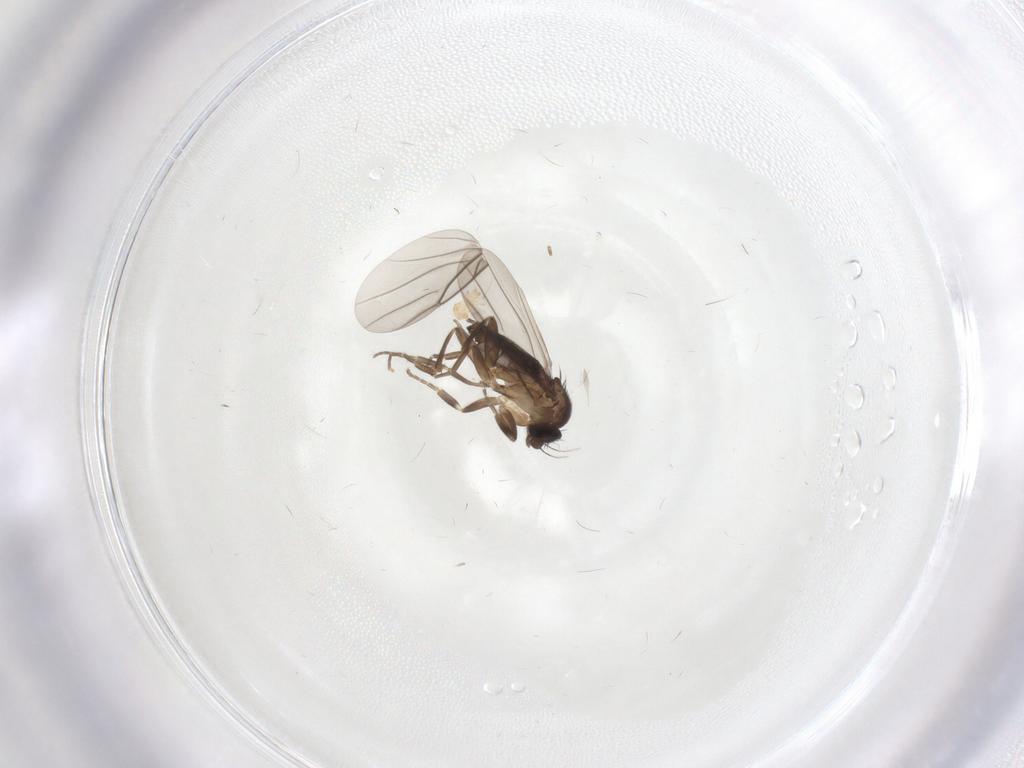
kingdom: Animalia
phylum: Arthropoda
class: Insecta
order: Diptera
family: Phoridae
